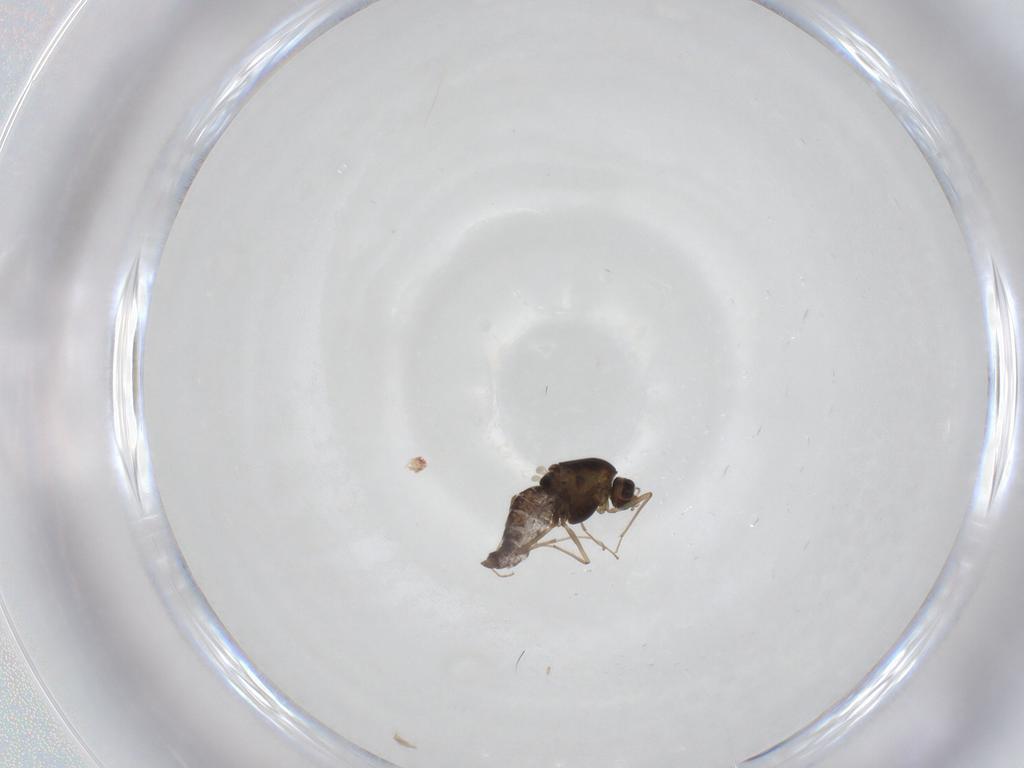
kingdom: Animalia
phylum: Arthropoda
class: Insecta
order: Diptera
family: Chironomidae
